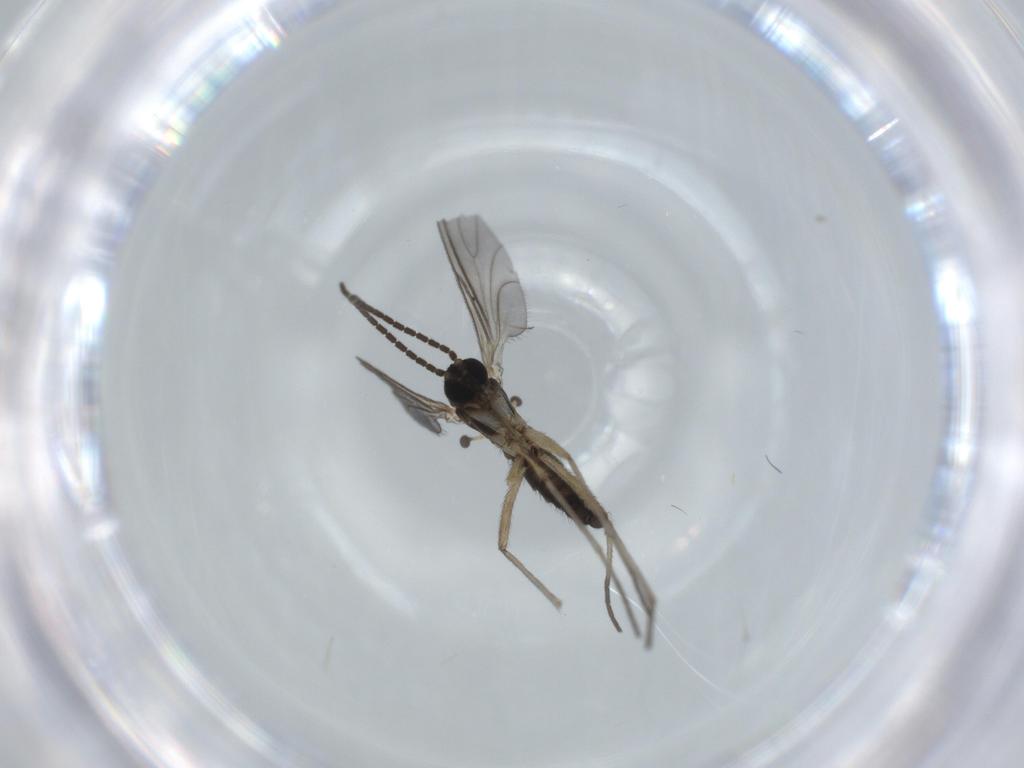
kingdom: Animalia
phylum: Arthropoda
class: Insecta
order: Diptera
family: Sciaridae
